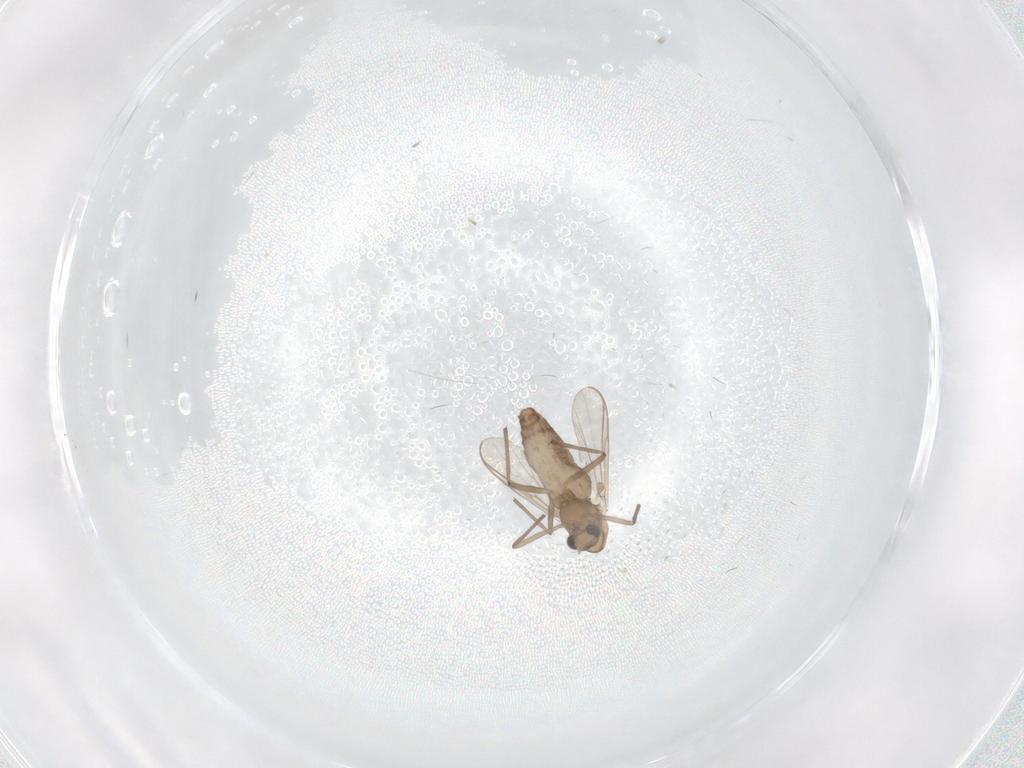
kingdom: Animalia
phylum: Arthropoda
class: Insecta
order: Diptera
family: Chironomidae
